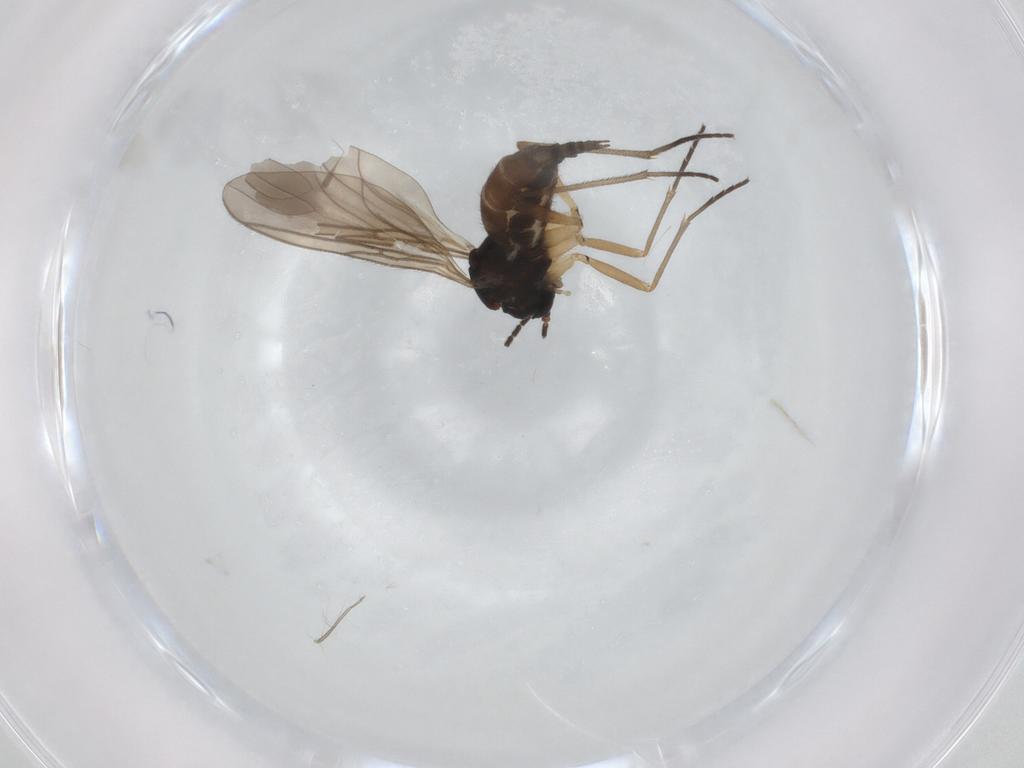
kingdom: Animalia
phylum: Arthropoda
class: Insecta
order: Diptera
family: Sciaridae
